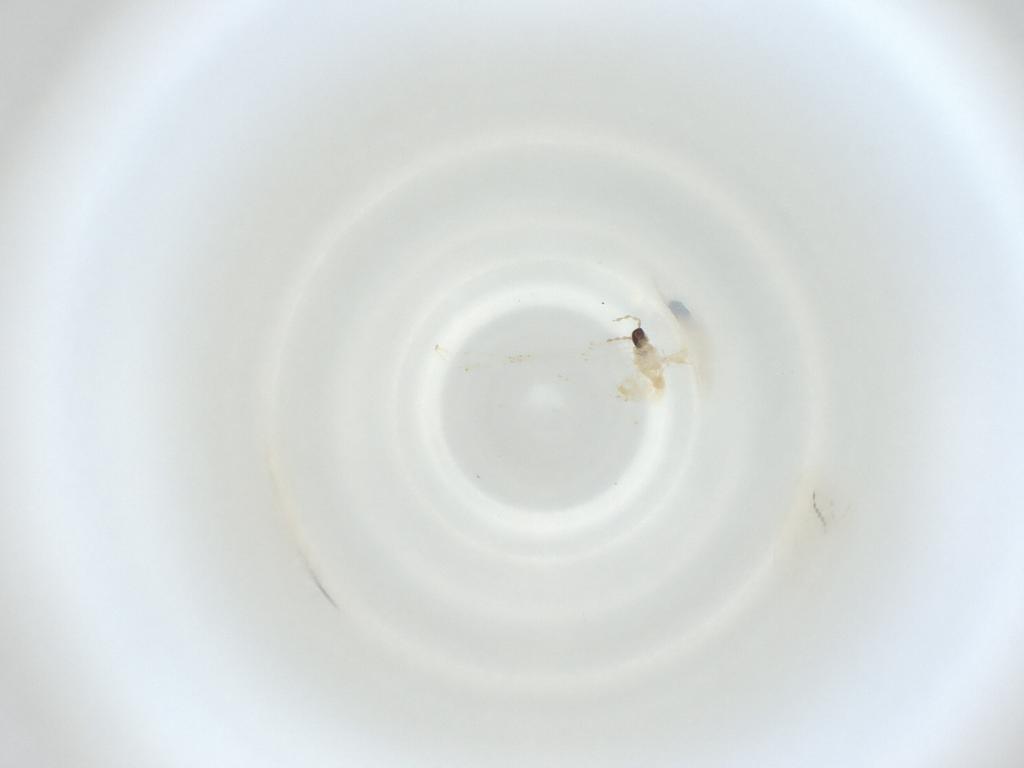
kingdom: Animalia
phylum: Arthropoda
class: Insecta
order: Diptera
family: Cecidomyiidae
